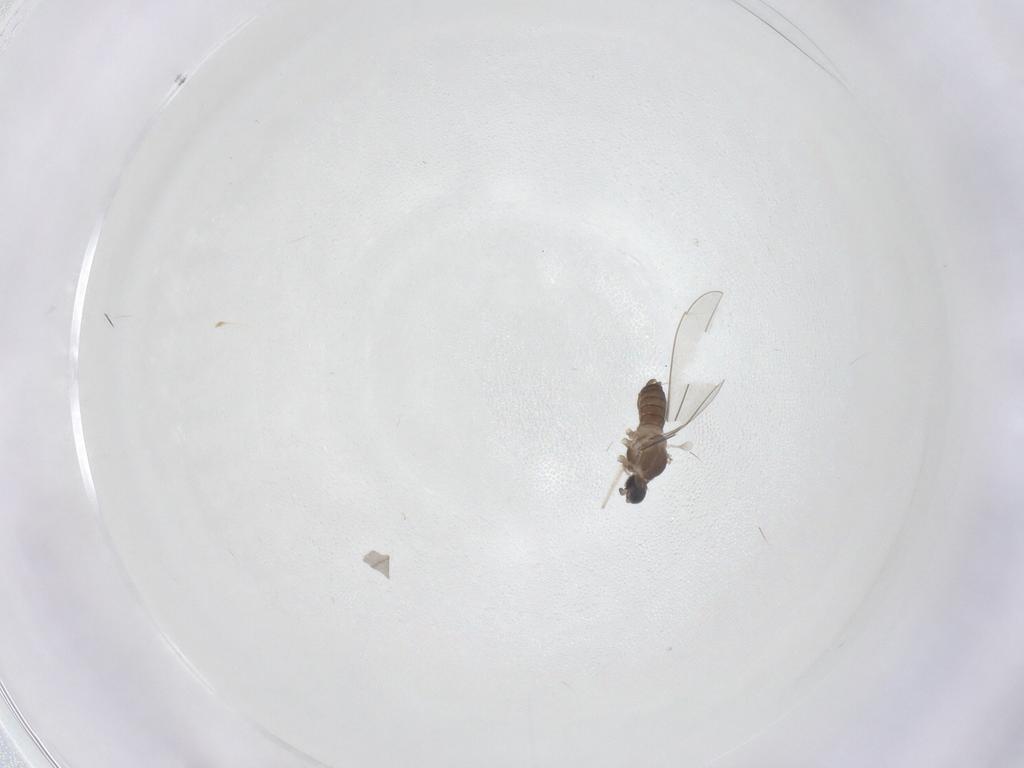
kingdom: Animalia
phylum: Arthropoda
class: Insecta
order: Diptera
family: Cecidomyiidae
